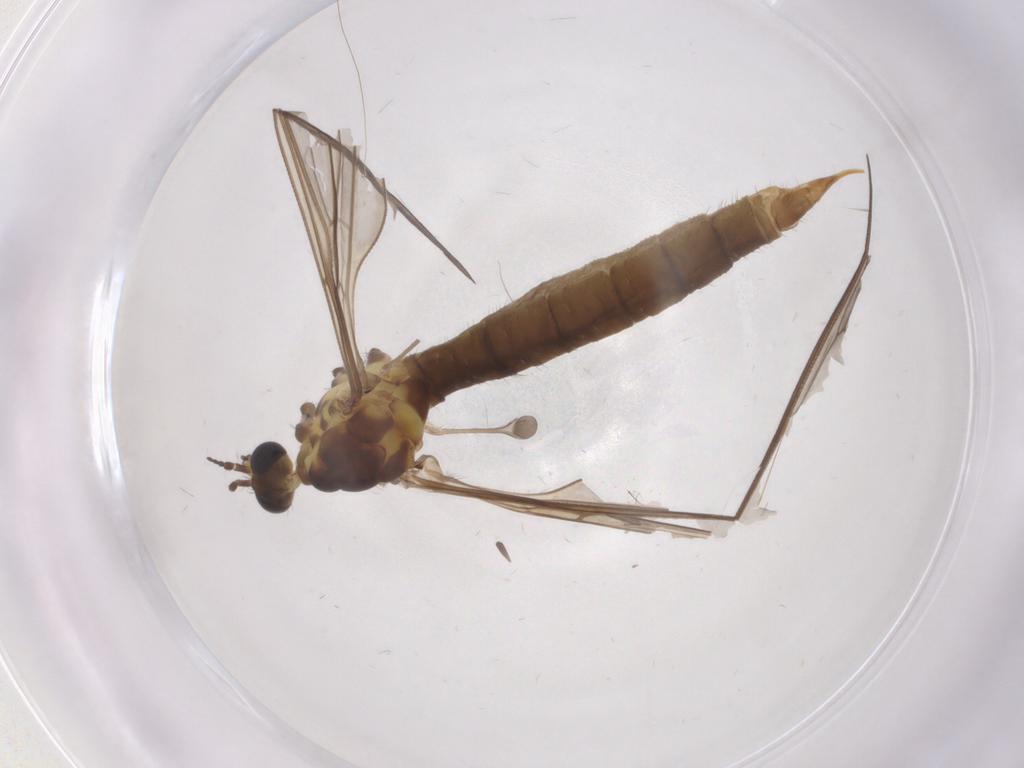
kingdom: Animalia
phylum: Arthropoda
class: Insecta
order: Diptera
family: Limoniidae
